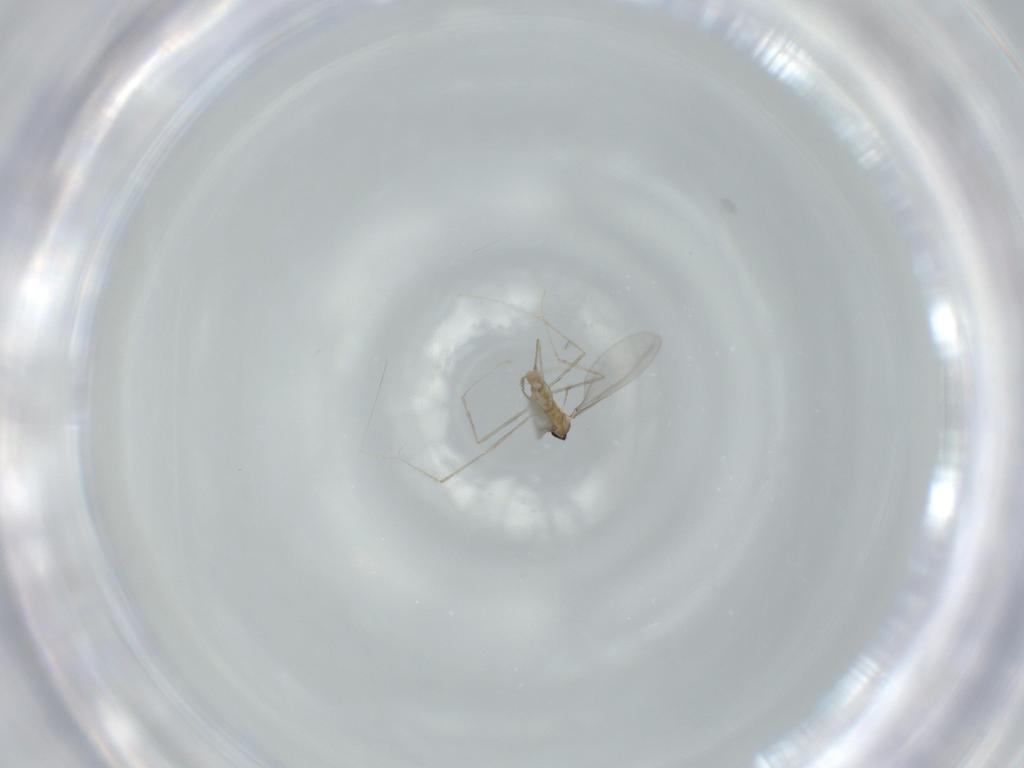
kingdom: Animalia
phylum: Arthropoda
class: Insecta
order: Diptera
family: Cecidomyiidae
